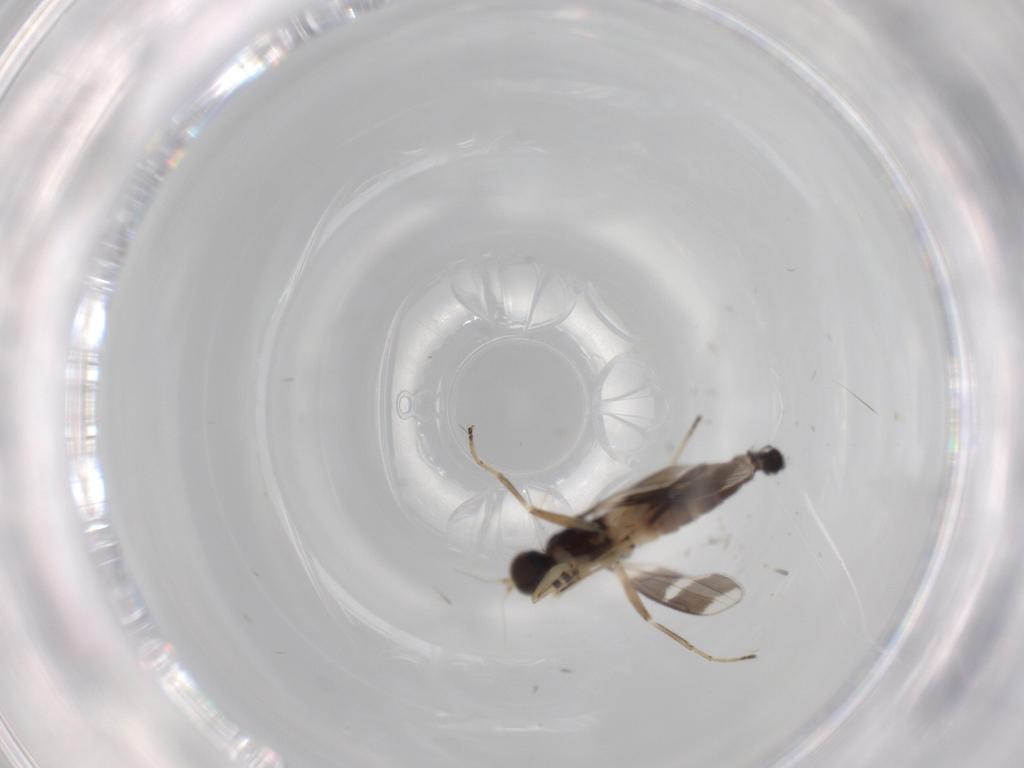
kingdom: Animalia
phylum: Arthropoda
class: Insecta
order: Diptera
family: Hybotidae
